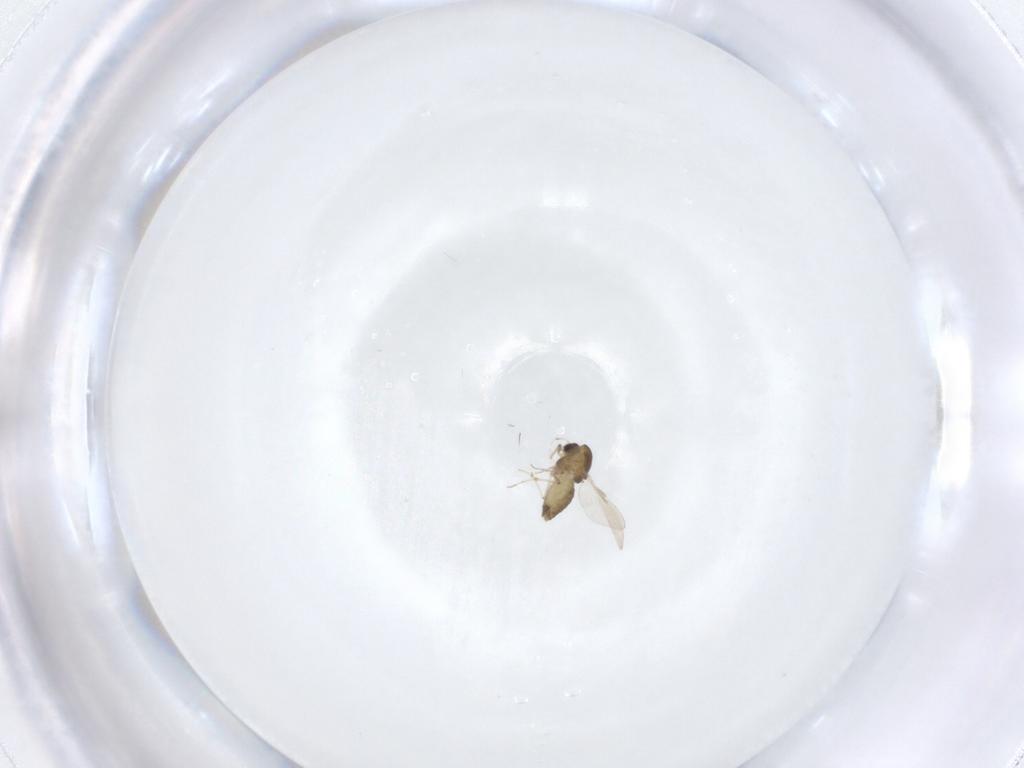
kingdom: Animalia
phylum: Arthropoda
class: Insecta
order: Diptera
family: Chironomidae
